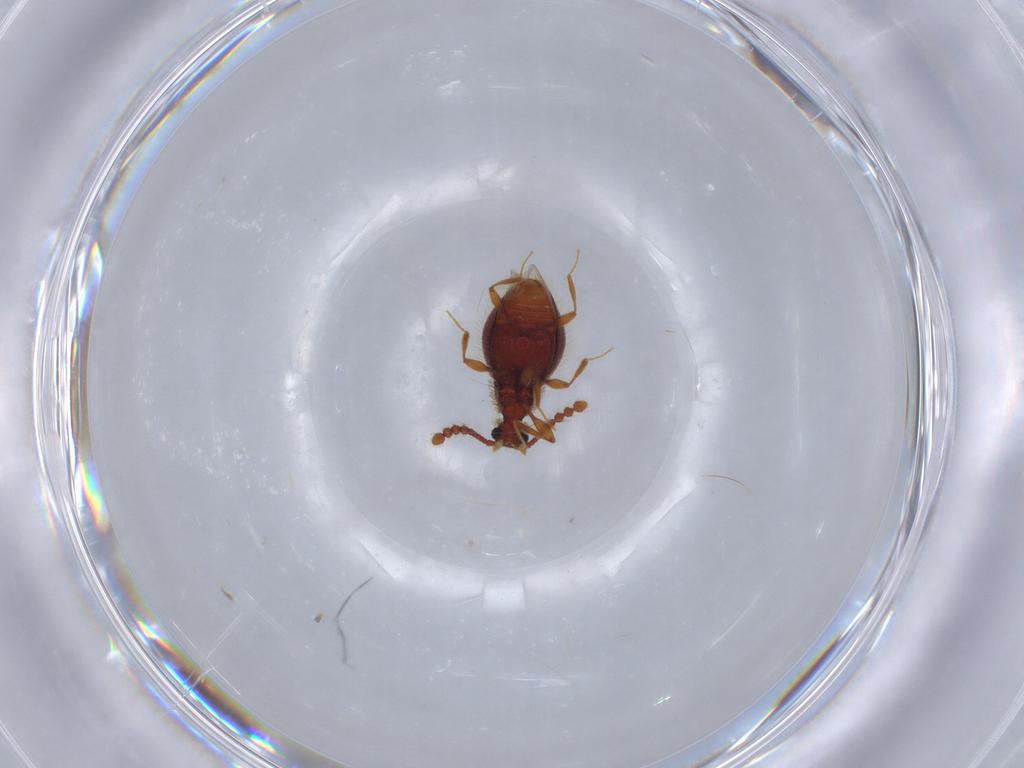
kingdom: Animalia
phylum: Arthropoda
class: Insecta
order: Coleoptera
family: Staphylinidae
